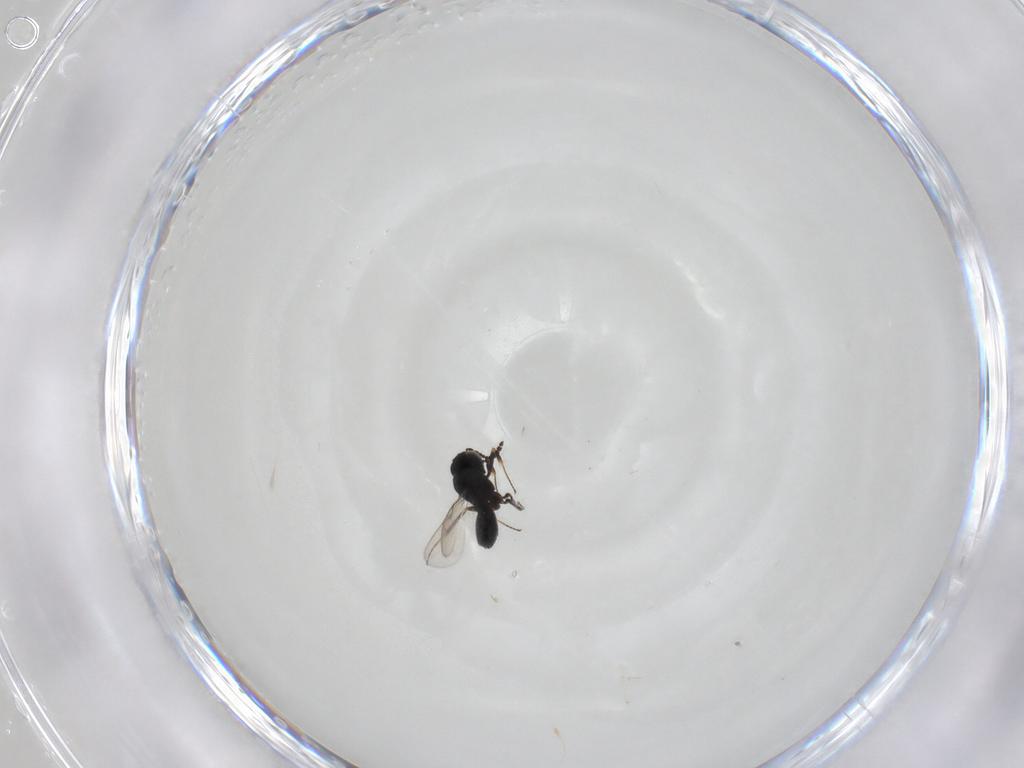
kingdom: Animalia
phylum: Arthropoda
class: Insecta
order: Hymenoptera
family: Scelionidae
